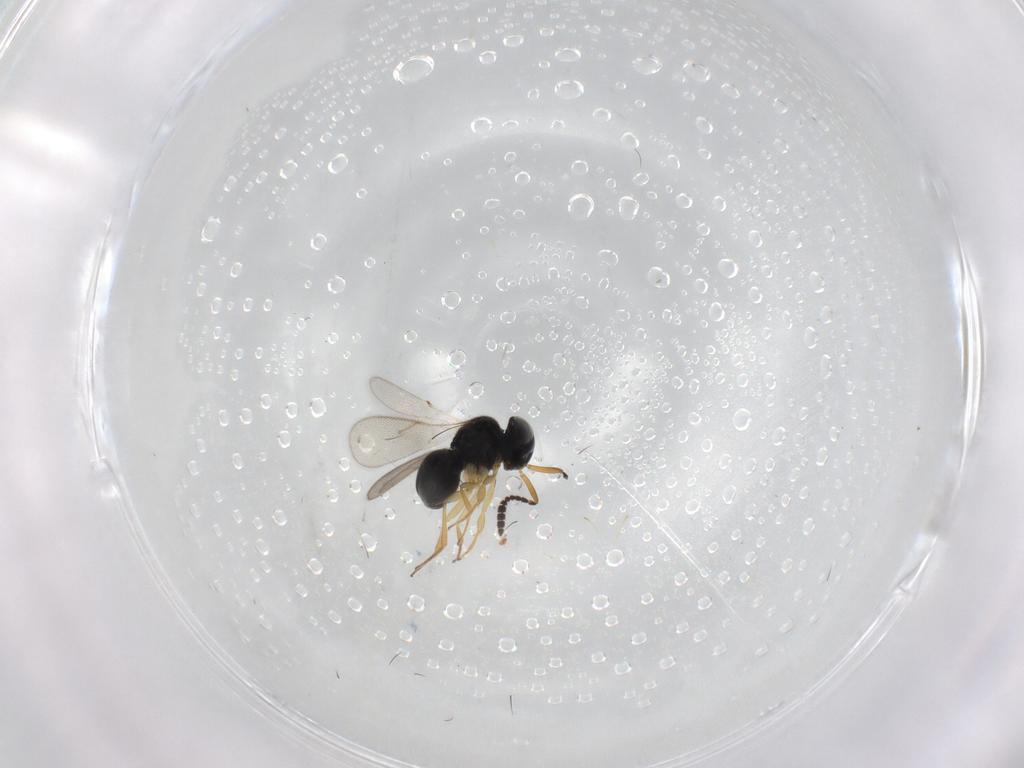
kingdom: Animalia
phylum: Arthropoda
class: Insecta
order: Hymenoptera
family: Scelionidae
